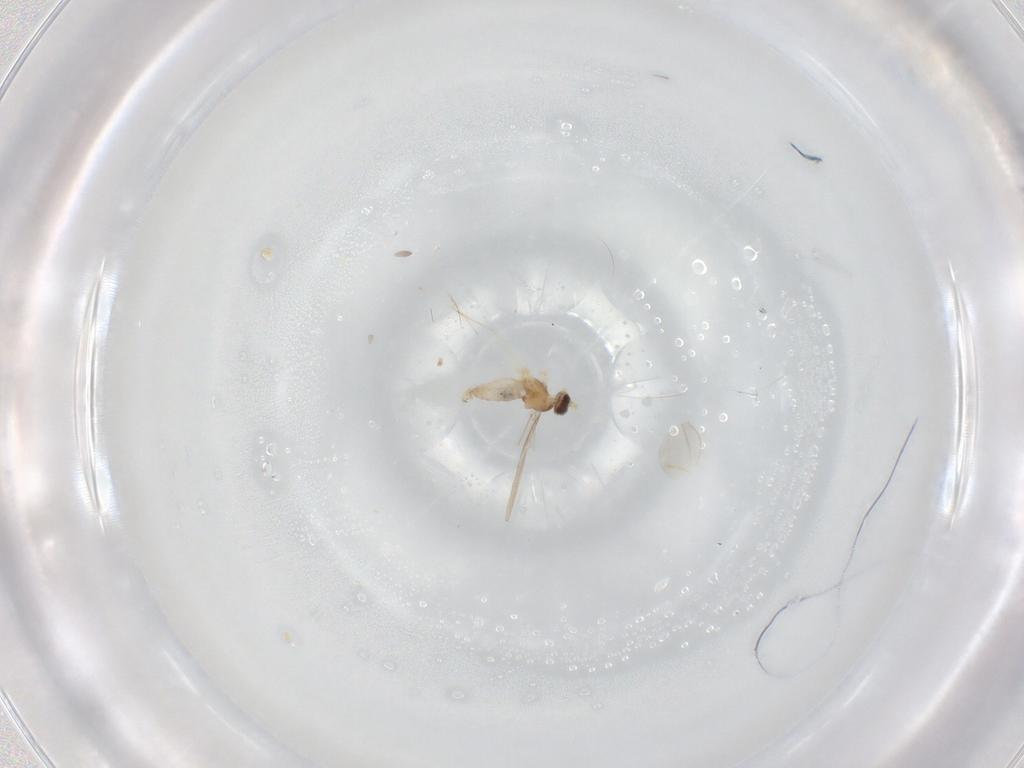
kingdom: Animalia
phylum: Arthropoda
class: Insecta
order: Diptera
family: Cecidomyiidae
